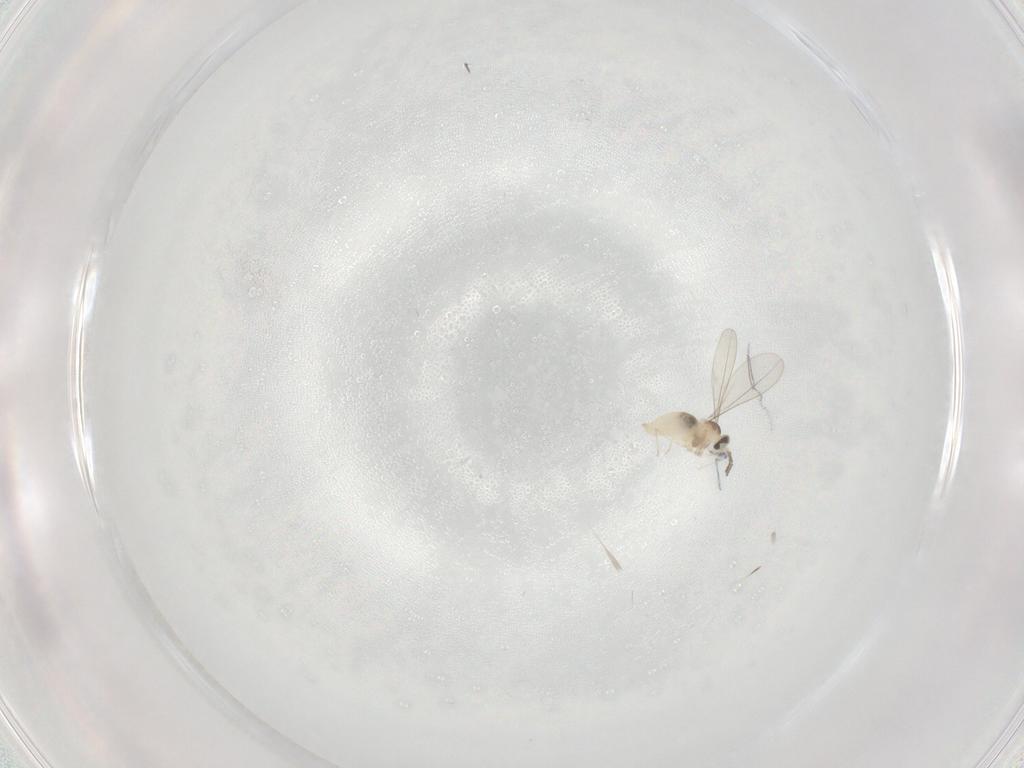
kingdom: Animalia
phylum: Arthropoda
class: Insecta
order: Diptera
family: Cecidomyiidae
